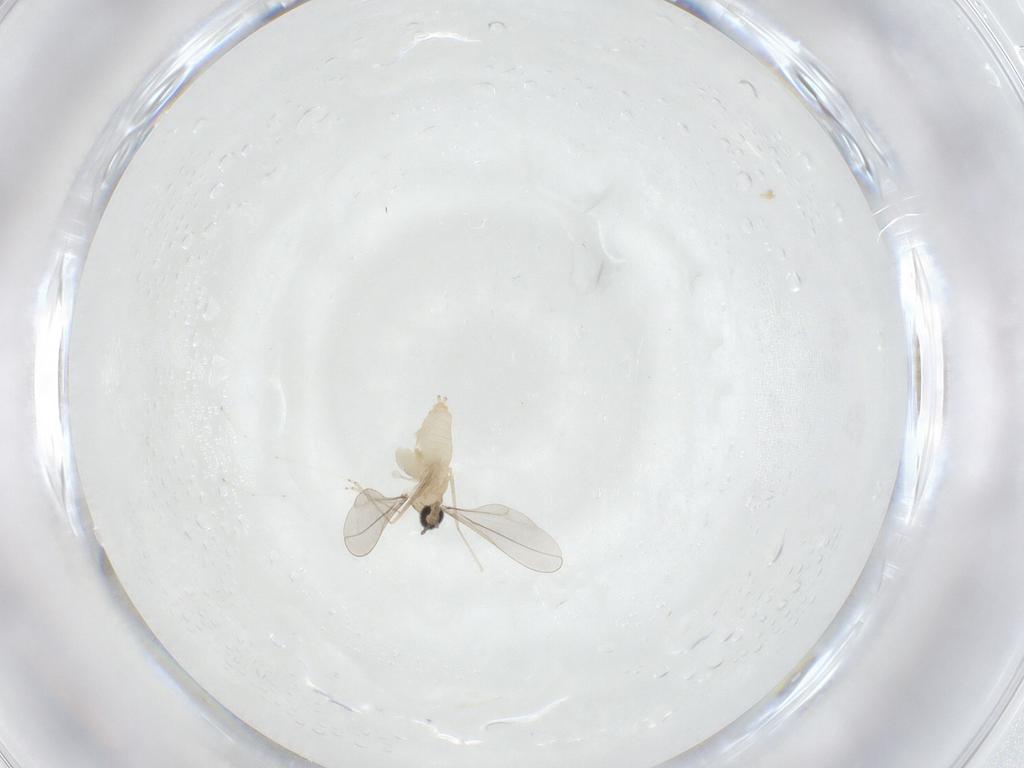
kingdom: Animalia
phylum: Arthropoda
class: Insecta
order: Diptera
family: Cecidomyiidae
